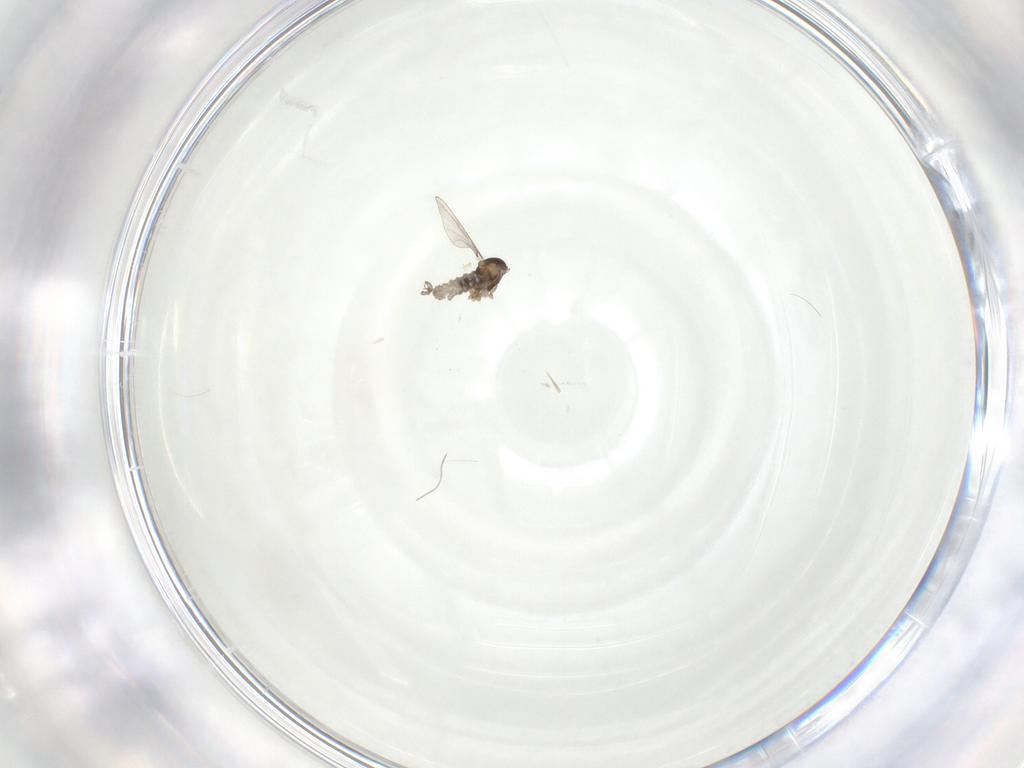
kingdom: Animalia
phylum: Arthropoda
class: Insecta
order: Diptera
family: Cecidomyiidae
